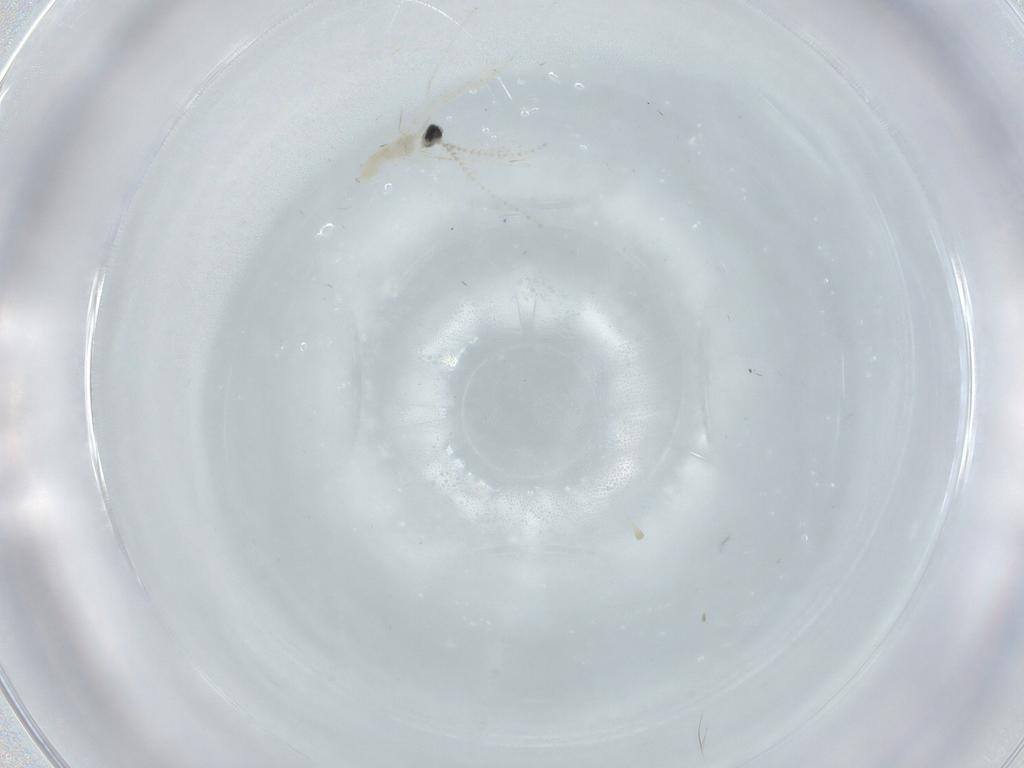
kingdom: Animalia
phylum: Arthropoda
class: Insecta
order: Diptera
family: Cecidomyiidae
